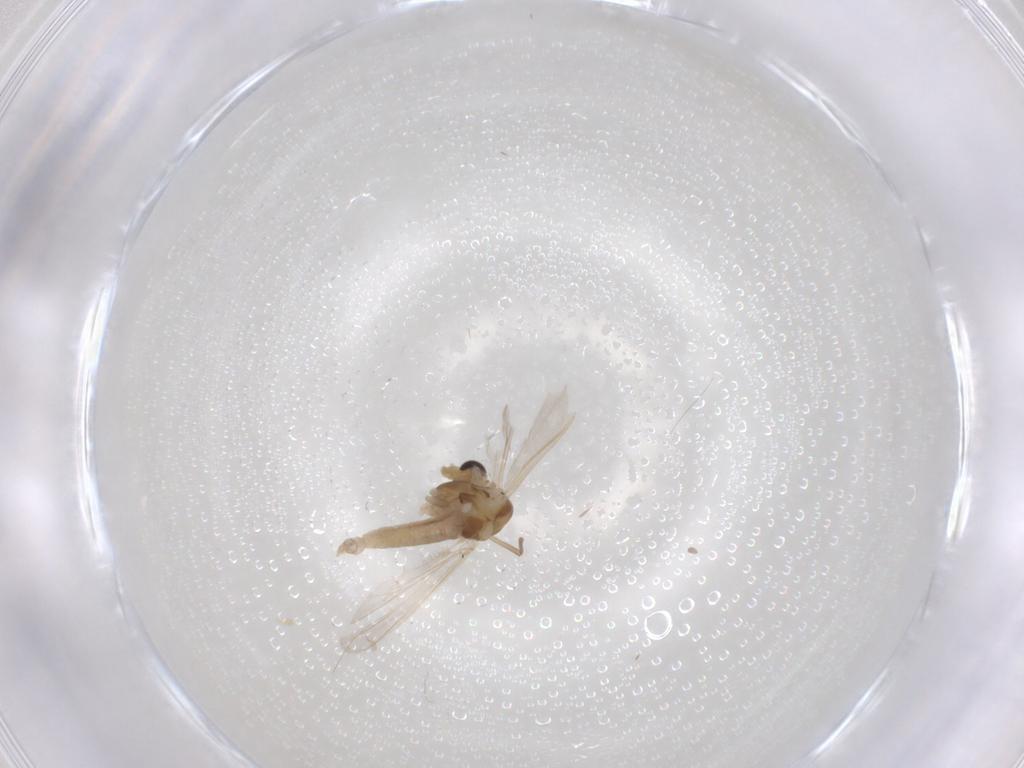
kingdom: Animalia
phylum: Arthropoda
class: Insecta
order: Diptera
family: Chironomidae
